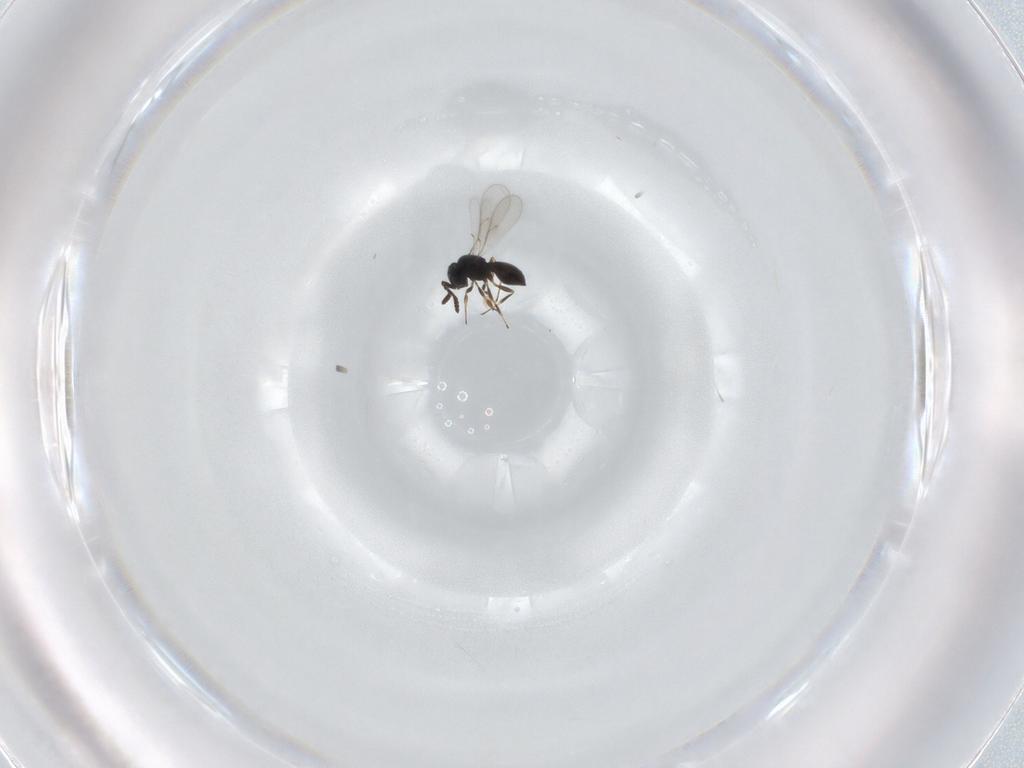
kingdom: Animalia
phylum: Arthropoda
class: Insecta
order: Hymenoptera
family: Scelionidae
